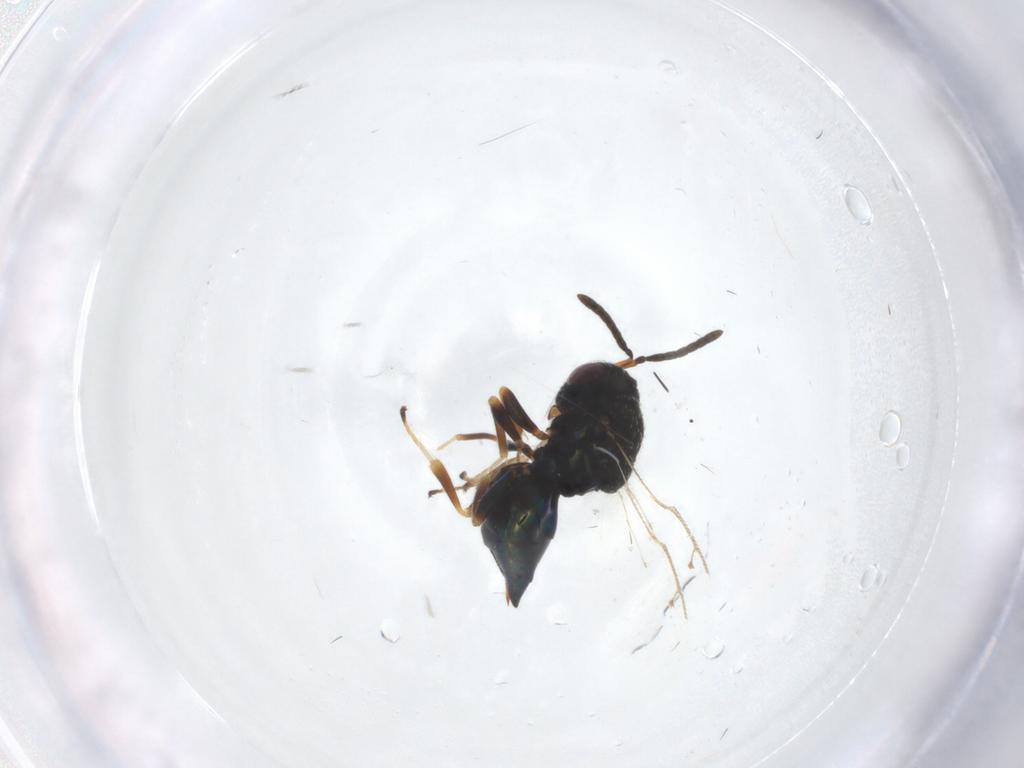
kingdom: Animalia
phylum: Arthropoda
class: Insecta
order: Hymenoptera
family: Pteromalidae
